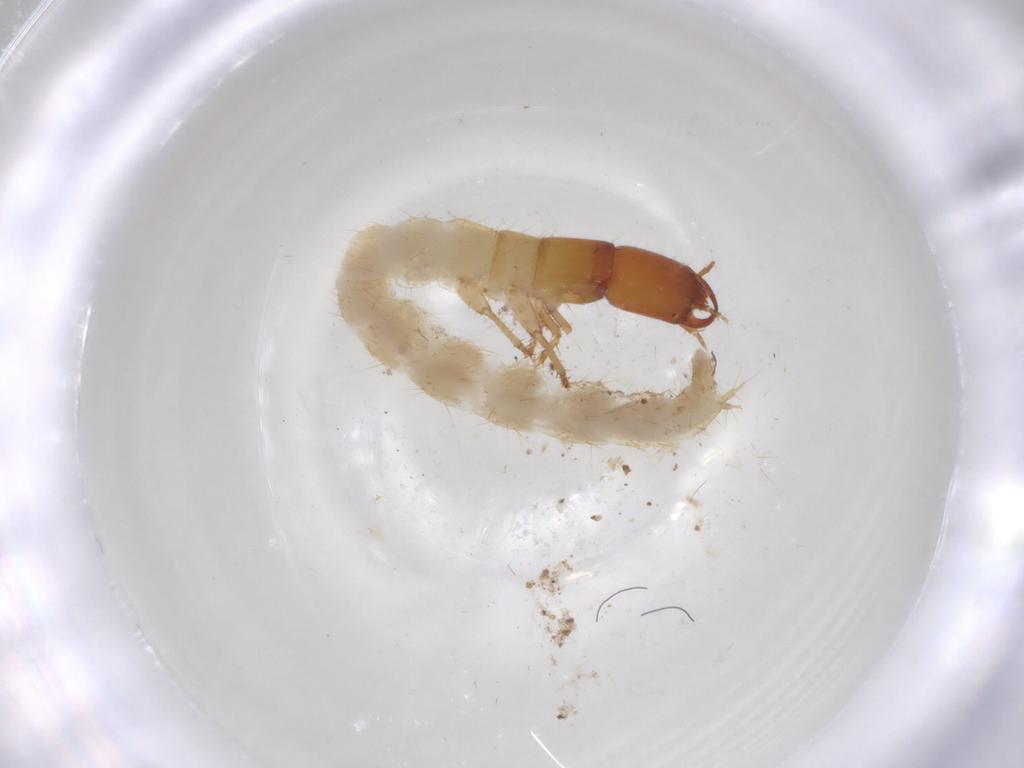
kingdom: Animalia
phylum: Arthropoda
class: Insecta
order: Coleoptera
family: Staphylinidae
